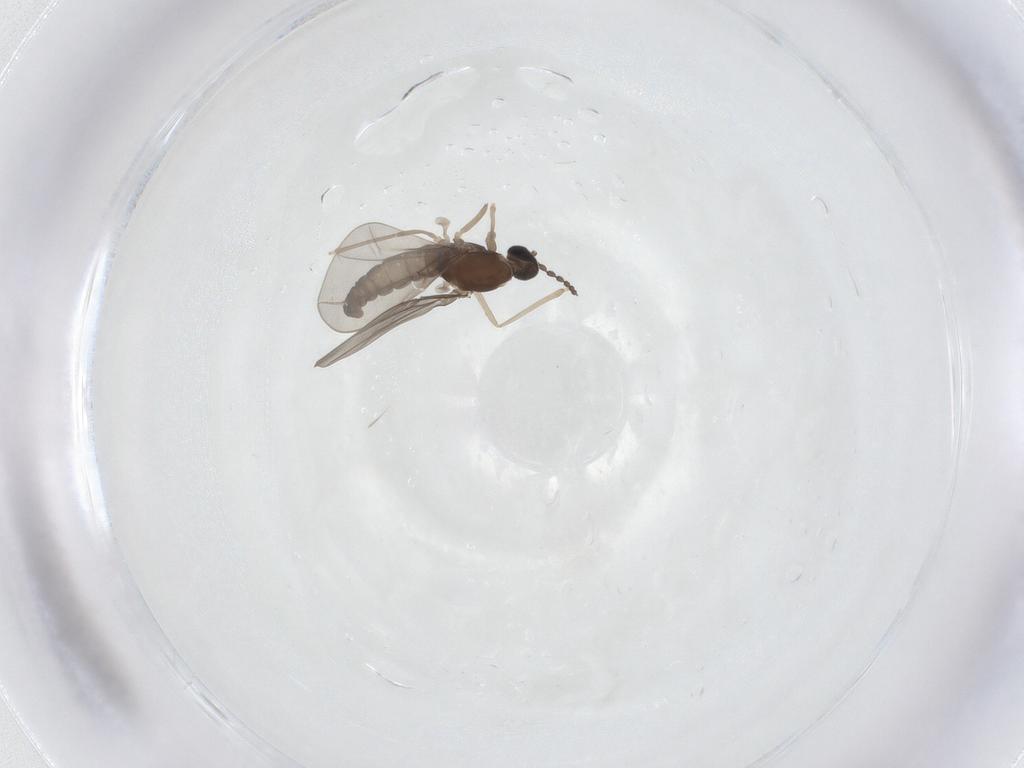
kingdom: Animalia
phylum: Arthropoda
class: Insecta
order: Diptera
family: Cecidomyiidae
